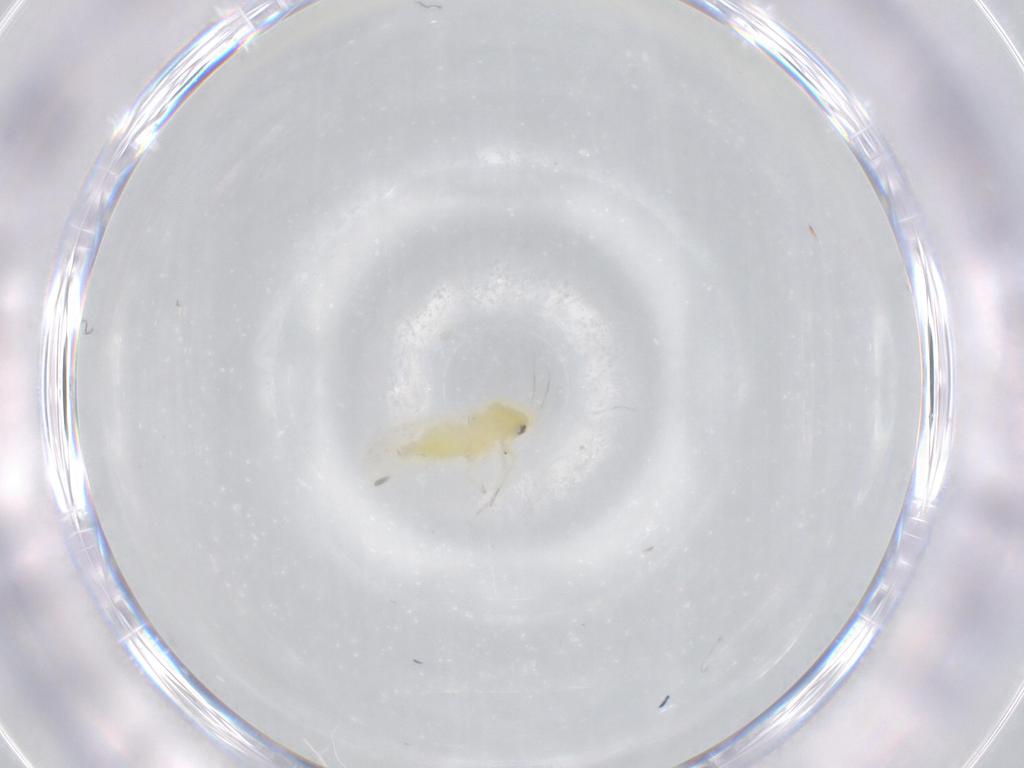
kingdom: Animalia
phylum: Arthropoda
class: Insecta
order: Hemiptera
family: Aleyrodidae
